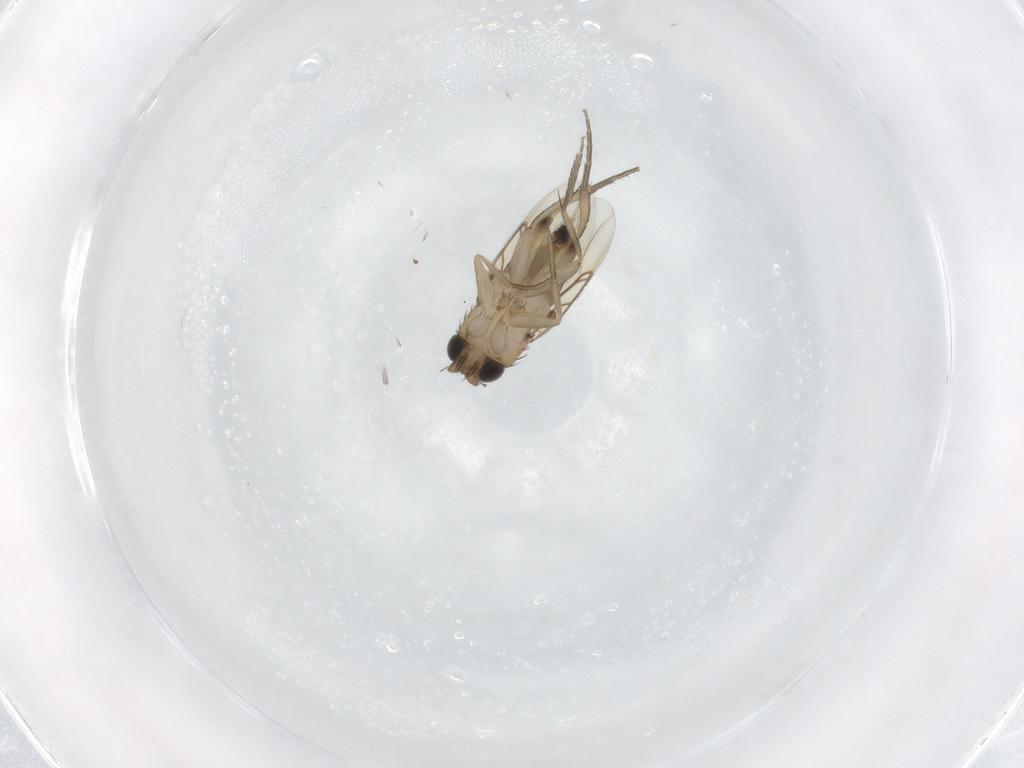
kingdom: Animalia
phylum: Arthropoda
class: Insecta
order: Diptera
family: Phoridae
